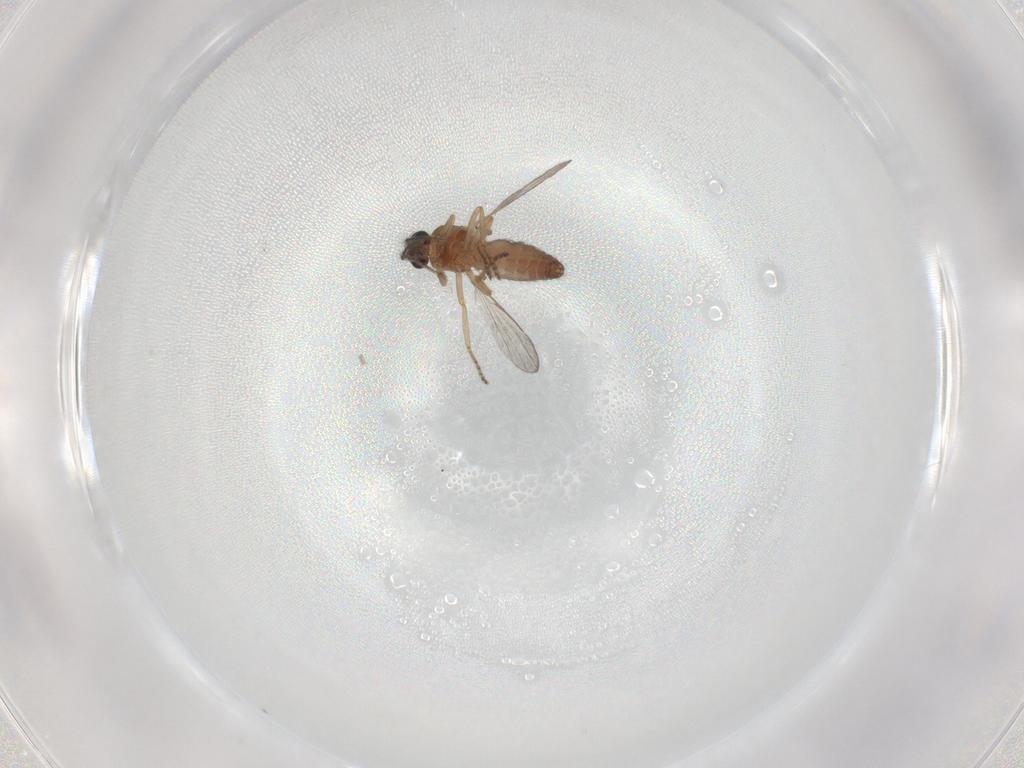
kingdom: Animalia
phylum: Arthropoda
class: Insecta
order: Diptera
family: Ceratopogonidae
